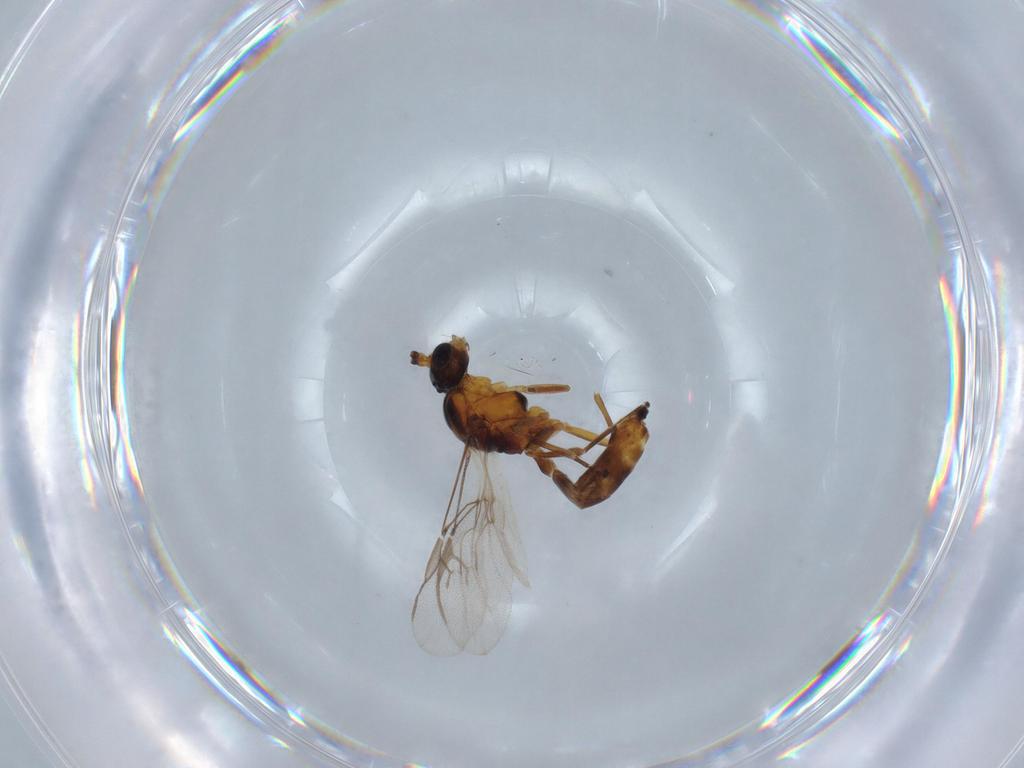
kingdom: Animalia
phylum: Arthropoda
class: Insecta
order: Hymenoptera
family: Braconidae
